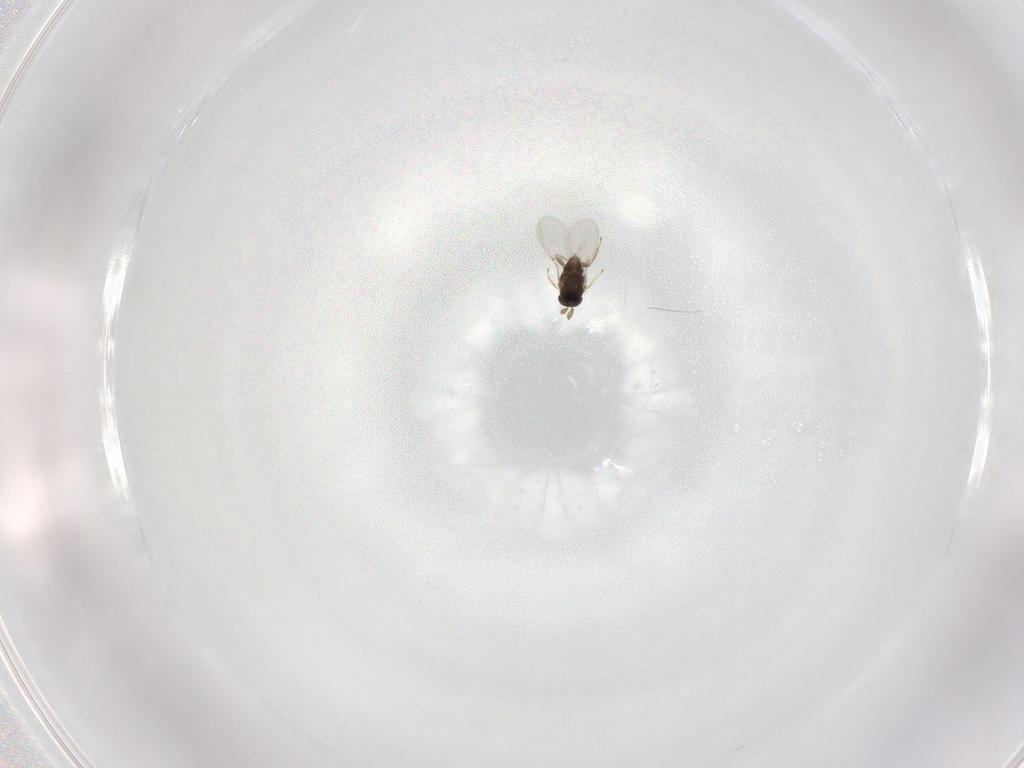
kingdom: Animalia
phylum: Arthropoda
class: Insecta
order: Hymenoptera
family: Encyrtidae
